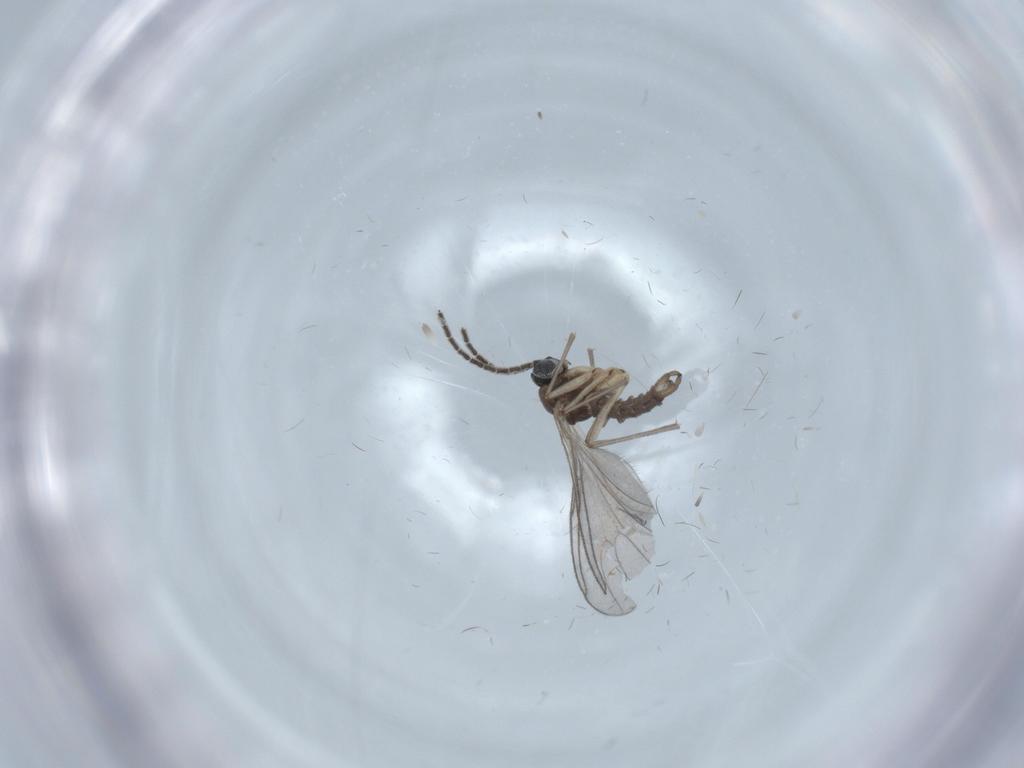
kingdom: Animalia
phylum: Arthropoda
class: Insecta
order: Diptera
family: Sciaridae
